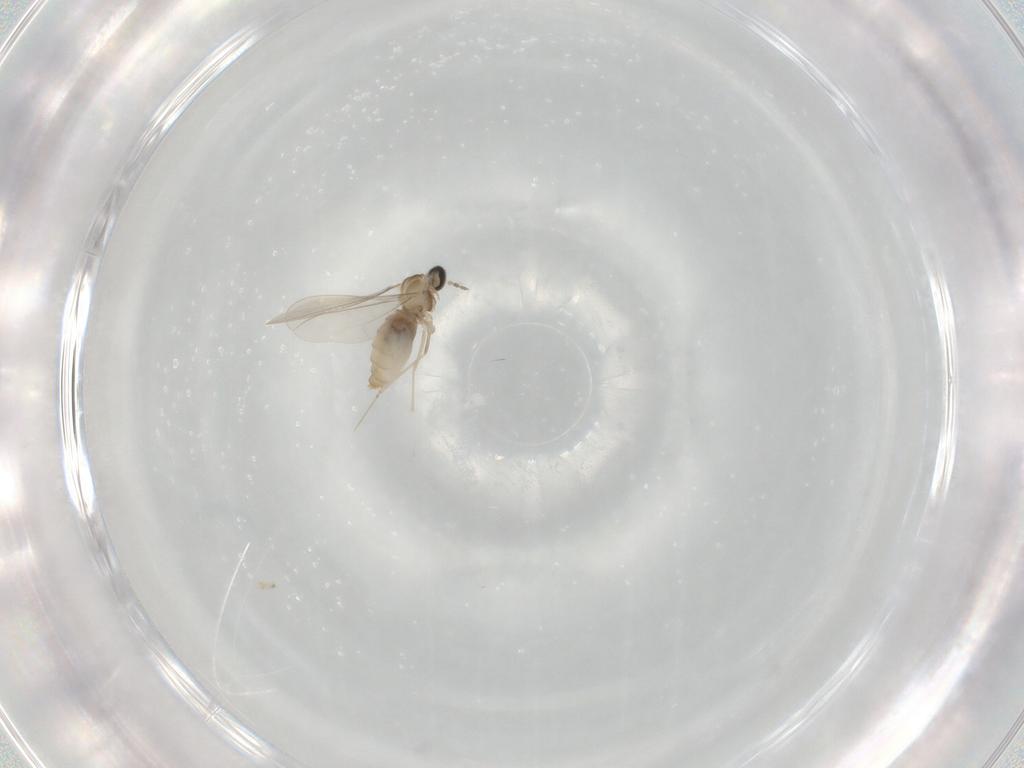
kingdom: Animalia
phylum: Arthropoda
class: Insecta
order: Diptera
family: Cecidomyiidae
